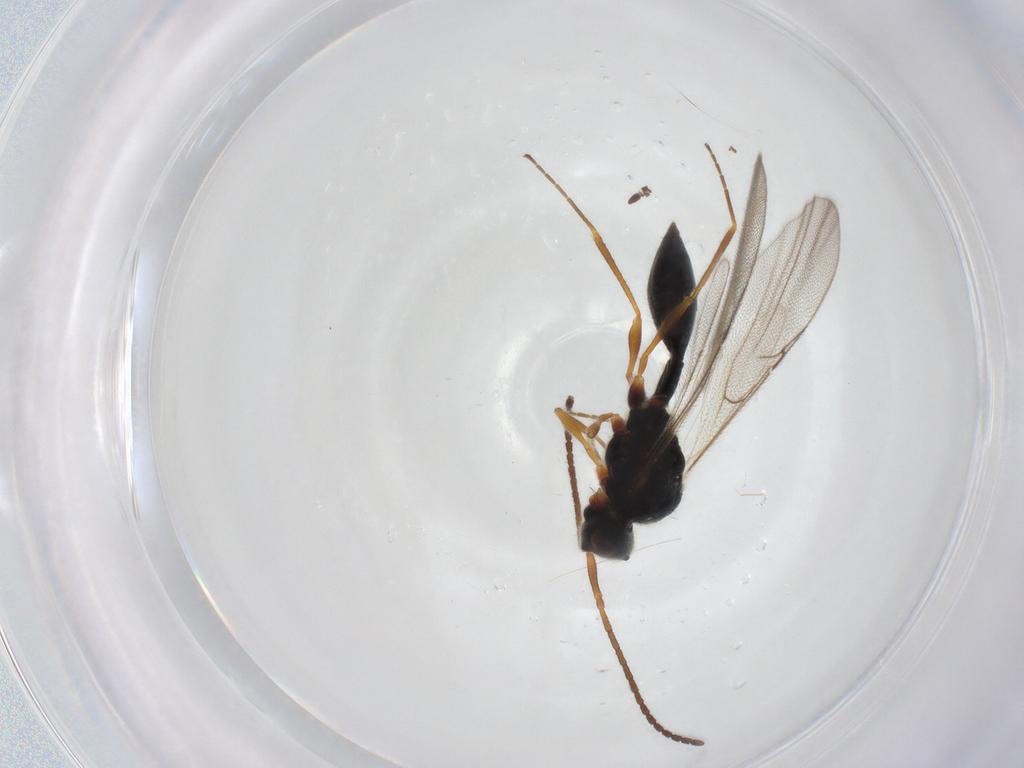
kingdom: Animalia
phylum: Arthropoda
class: Insecta
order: Hymenoptera
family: Diapriidae
